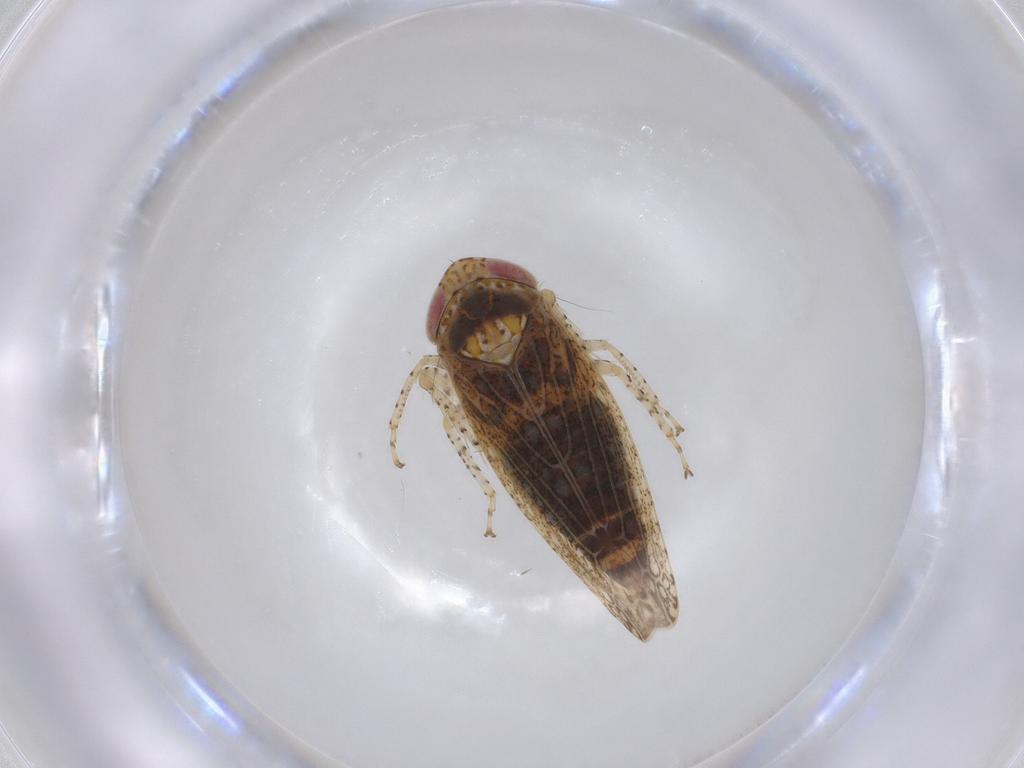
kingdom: Animalia
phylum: Arthropoda
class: Insecta
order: Hemiptera
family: Cicadellidae
